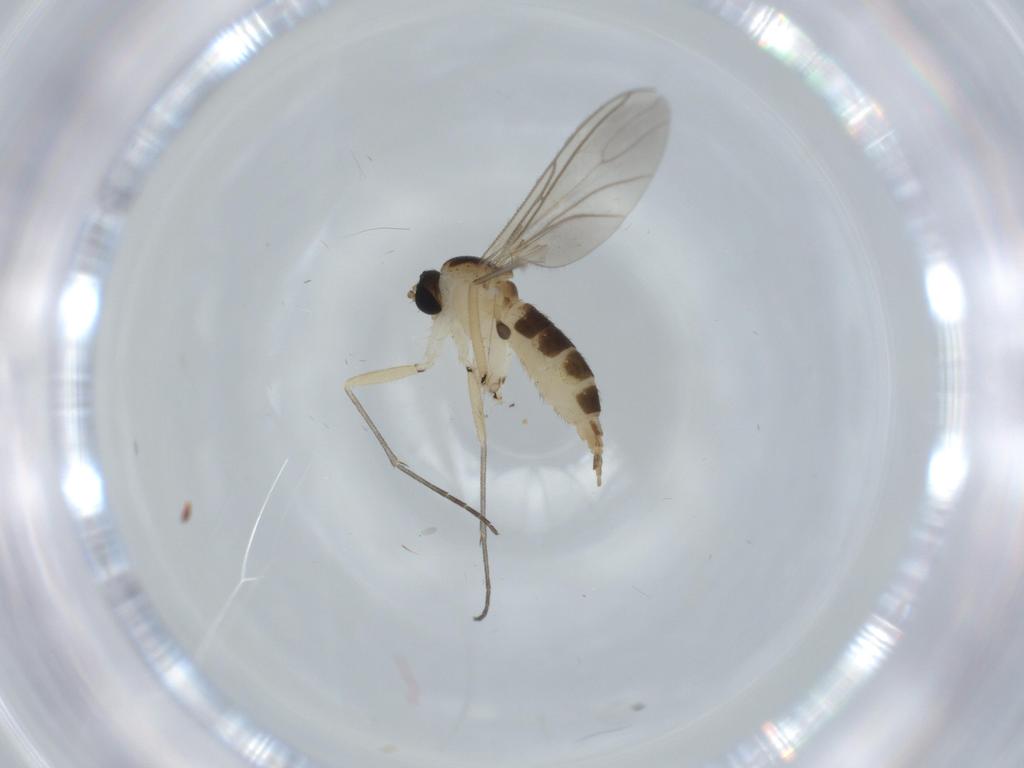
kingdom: Animalia
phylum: Arthropoda
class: Insecta
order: Diptera
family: Sciaridae
